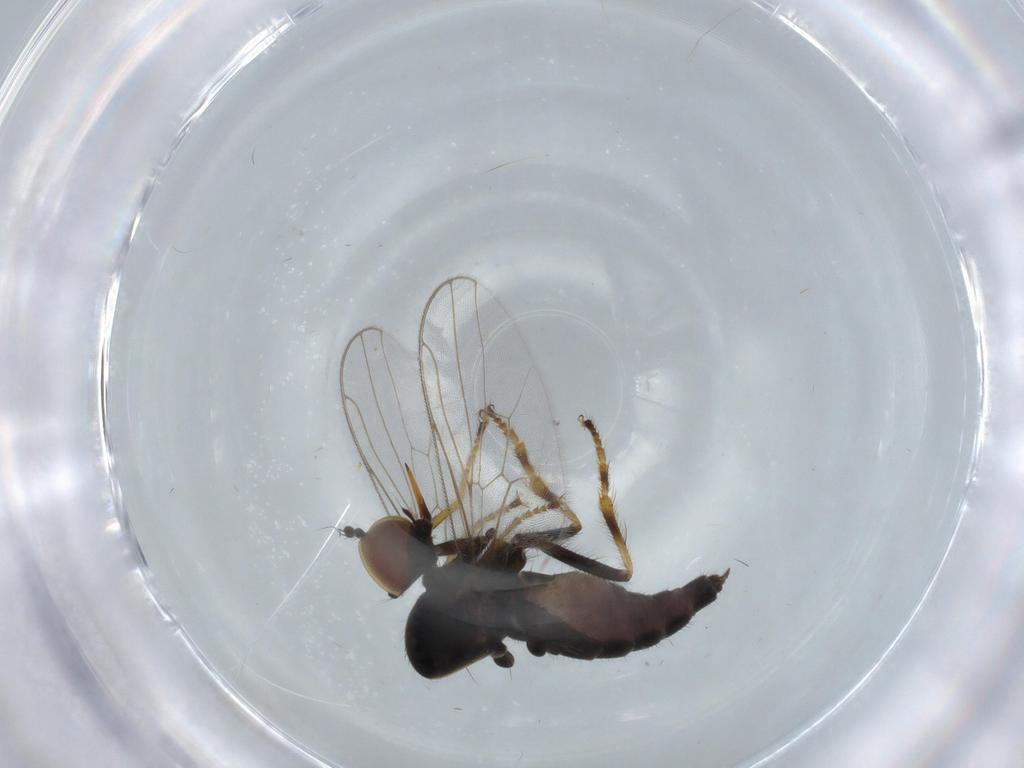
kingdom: Animalia
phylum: Arthropoda
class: Insecta
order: Diptera
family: Hybotidae
